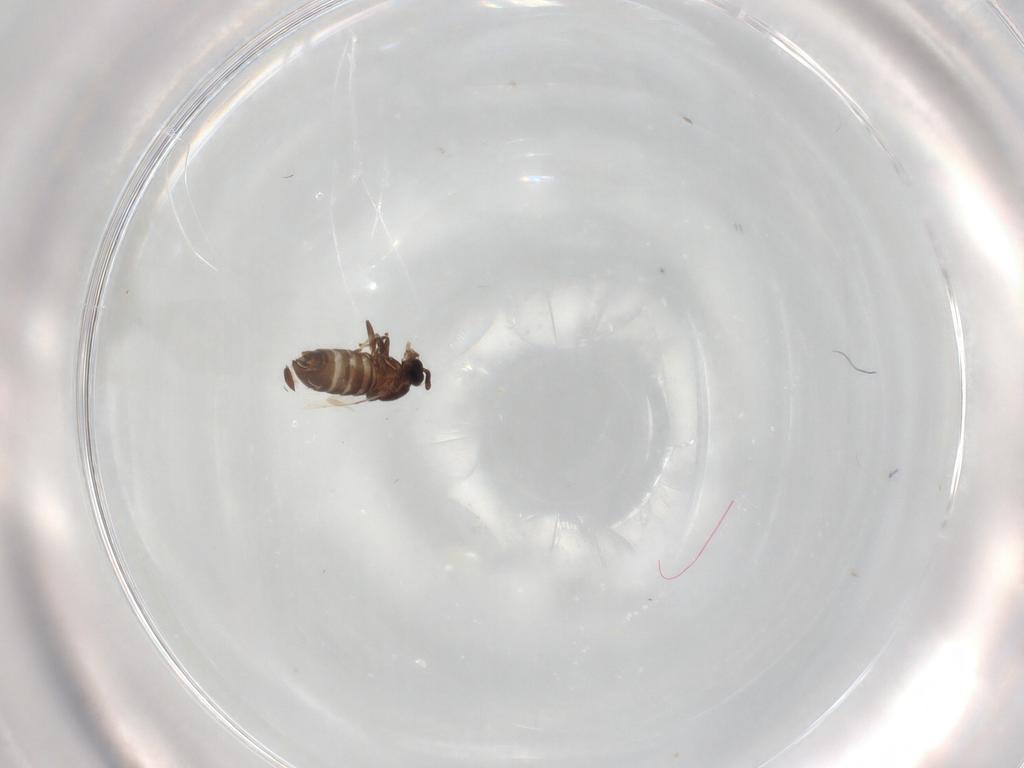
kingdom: Animalia
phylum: Arthropoda
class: Insecta
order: Diptera
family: Scatopsidae
